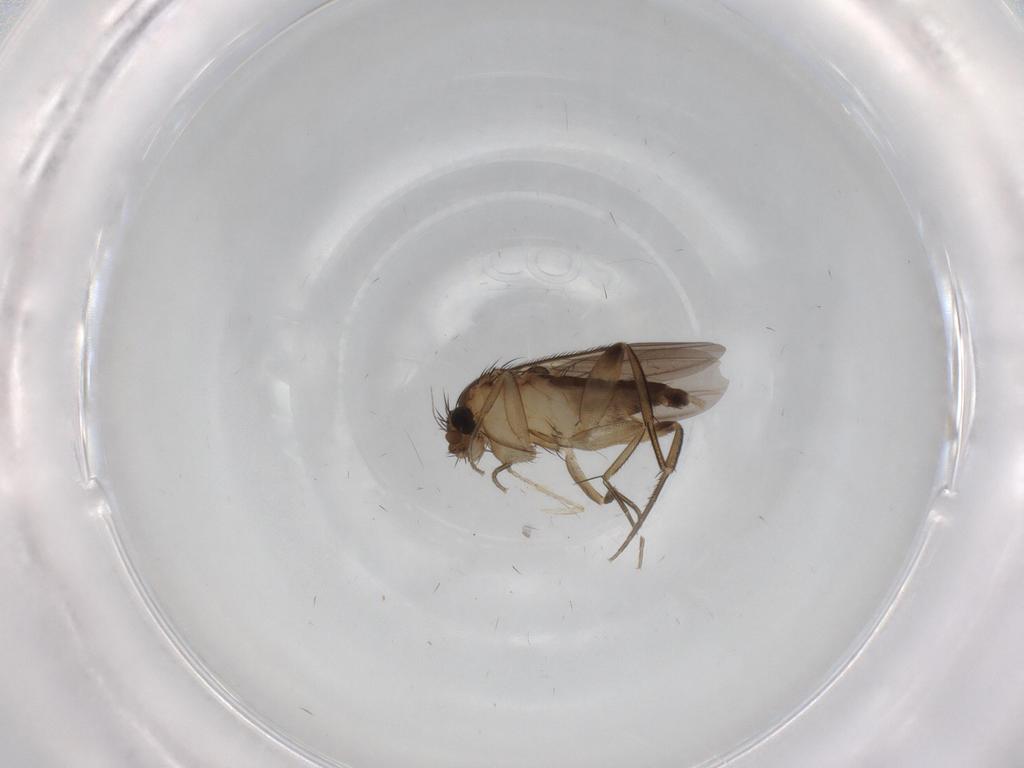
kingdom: Animalia
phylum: Arthropoda
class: Insecta
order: Diptera
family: Phoridae
